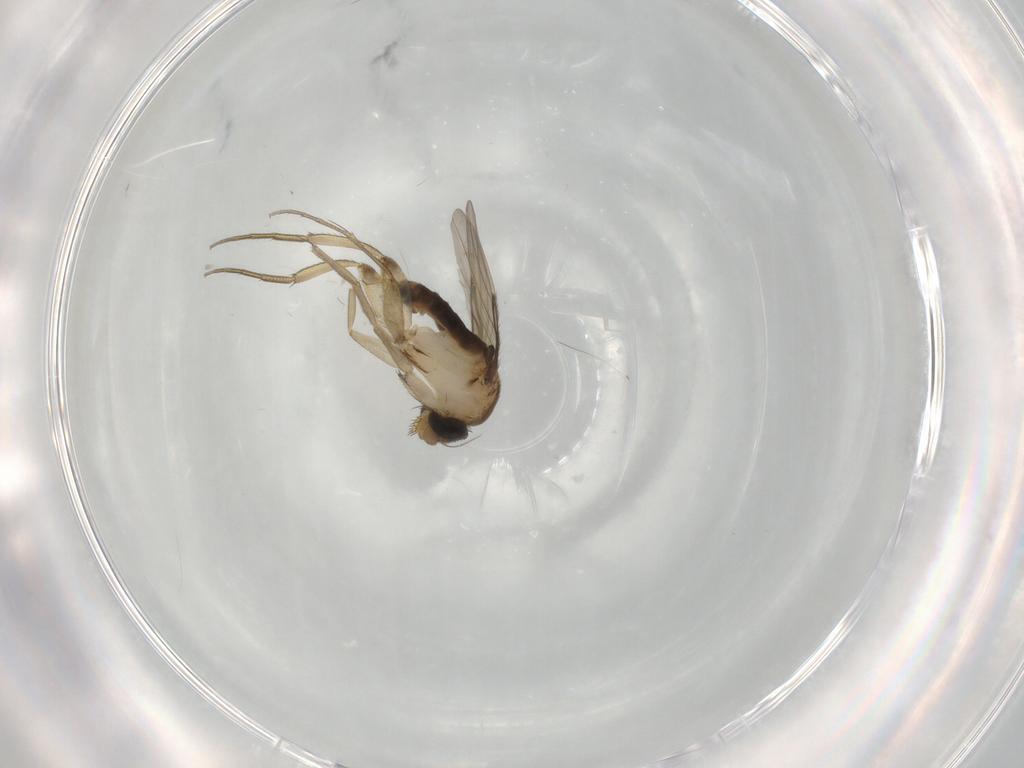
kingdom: Animalia
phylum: Arthropoda
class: Insecta
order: Diptera
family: Phoridae
